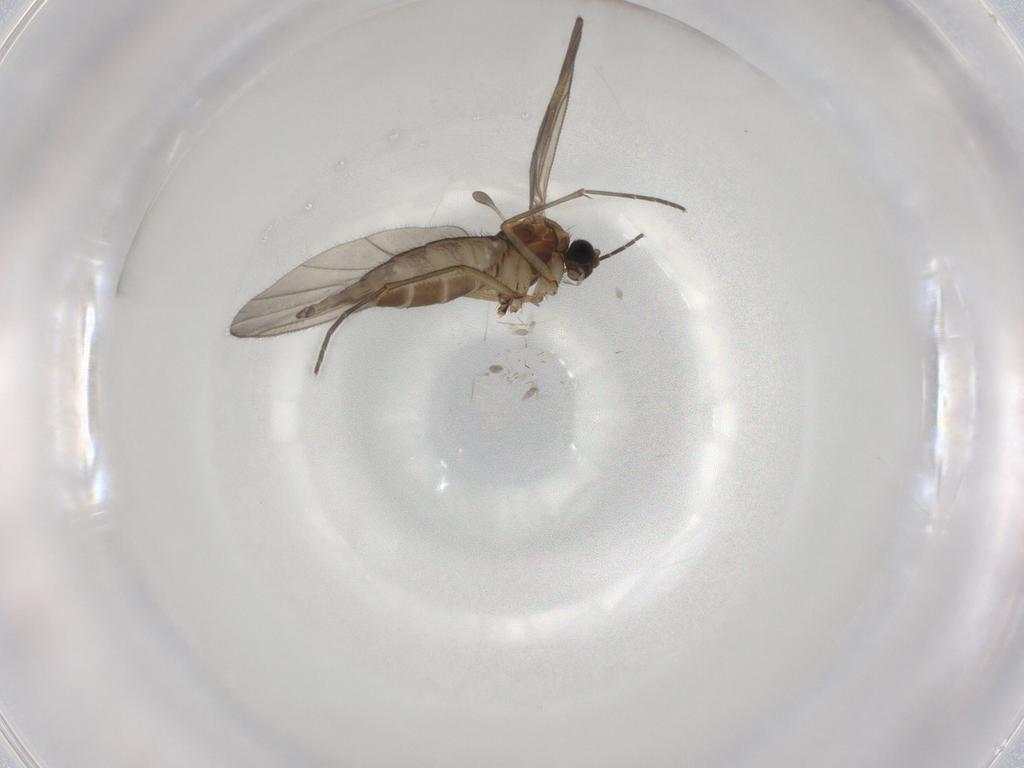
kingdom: Animalia
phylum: Arthropoda
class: Insecta
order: Diptera
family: Sciaridae
